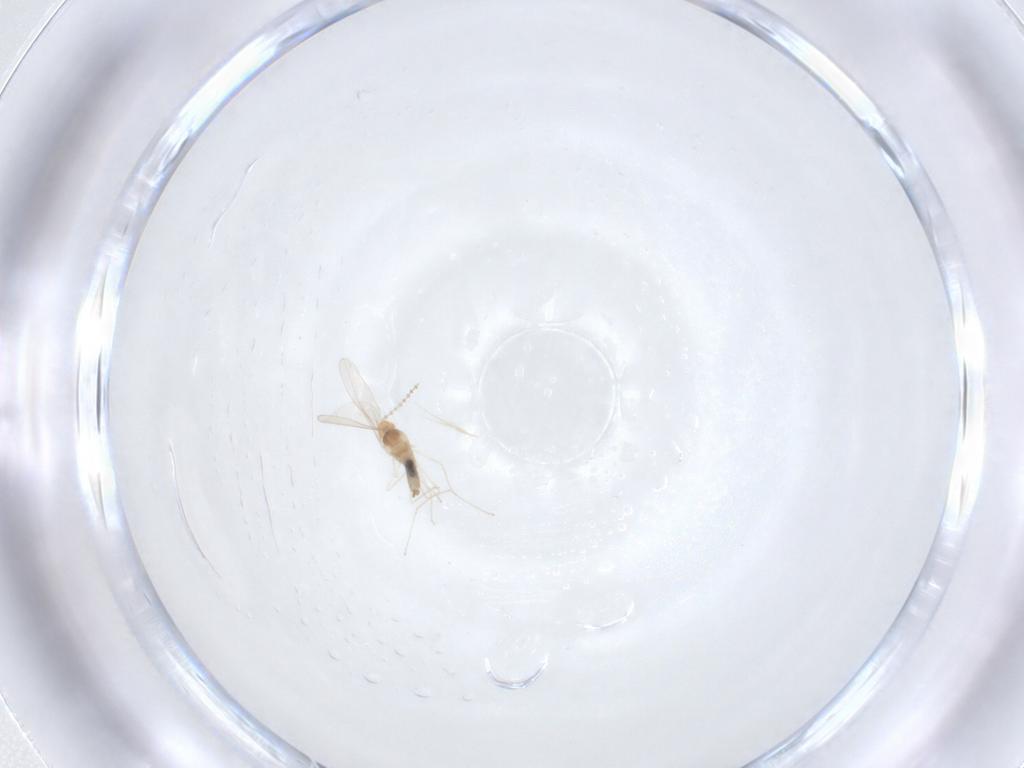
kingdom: Animalia
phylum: Arthropoda
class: Insecta
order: Diptera
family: Cecidomyiidae
